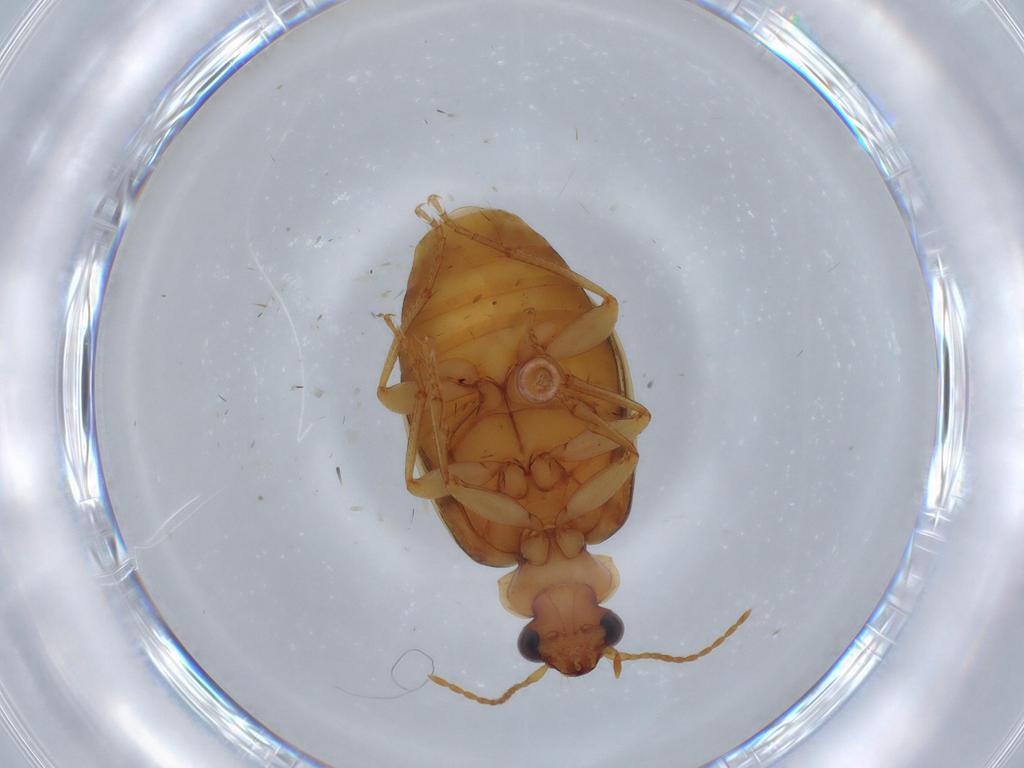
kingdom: Animalia
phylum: Arthropoda
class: Insecta
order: Coleoptera
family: Carabidae
